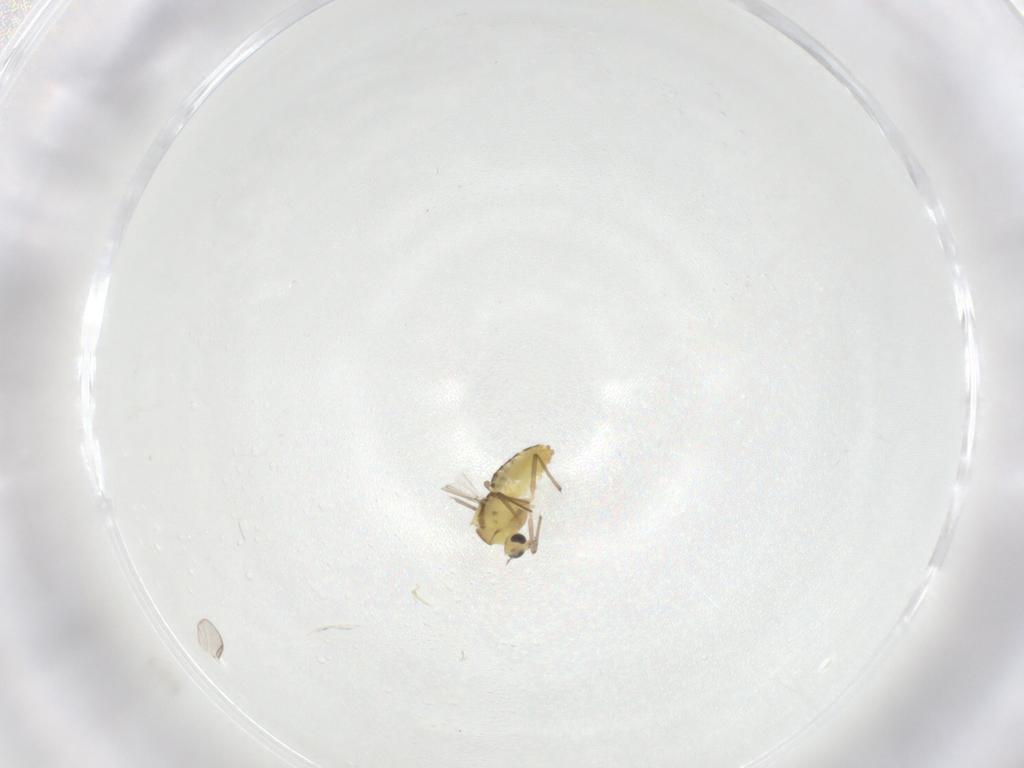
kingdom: Animalia
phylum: Arthropoda
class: Insecta
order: Diptera
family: Chironomidae
